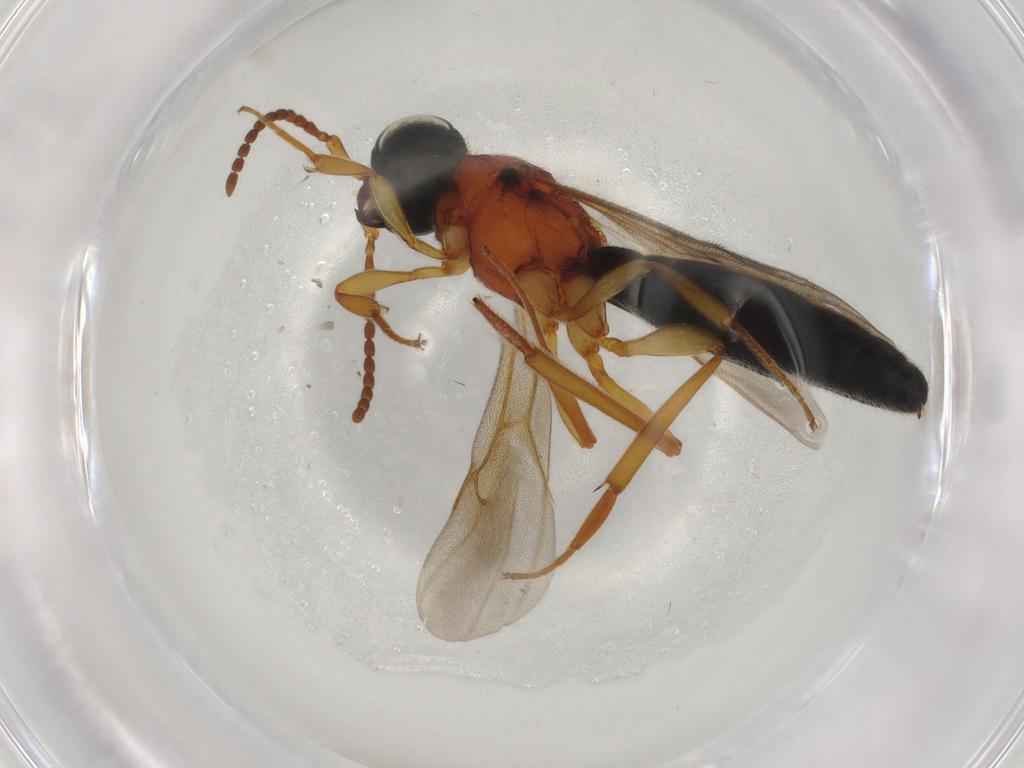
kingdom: Animalia
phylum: Arthropoda
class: Insecta
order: Hymenoptera
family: Scelionidae
